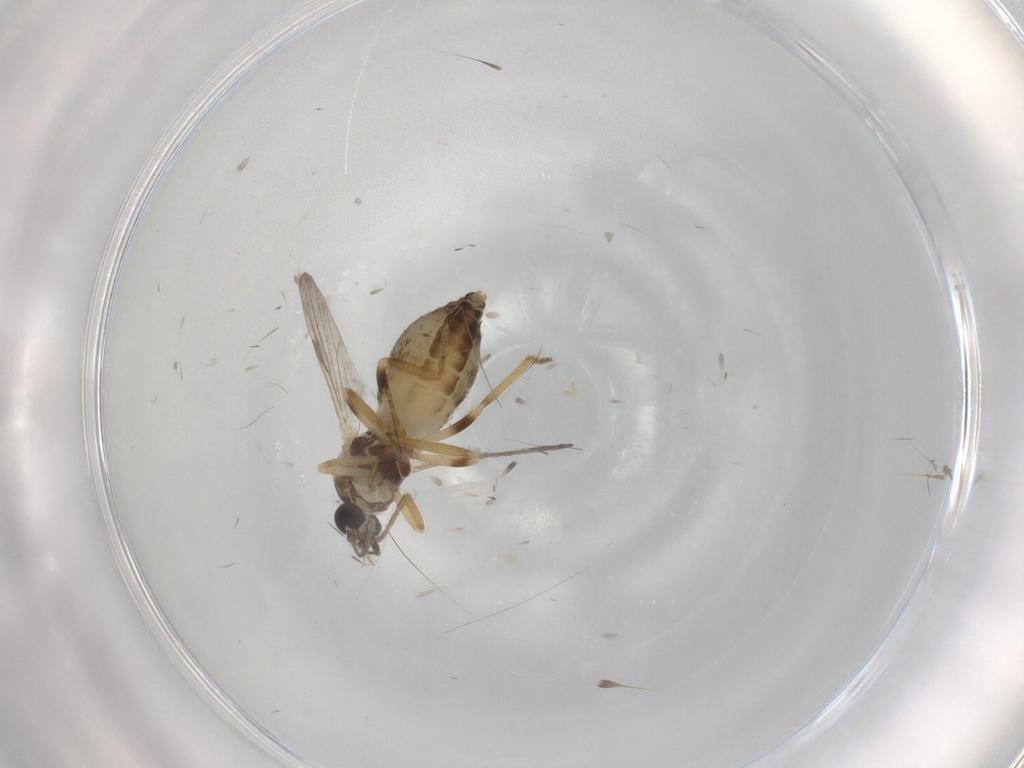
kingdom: Animalia
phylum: Arthropoda
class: Insecta
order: Diptera
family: Ceratopogonidae
